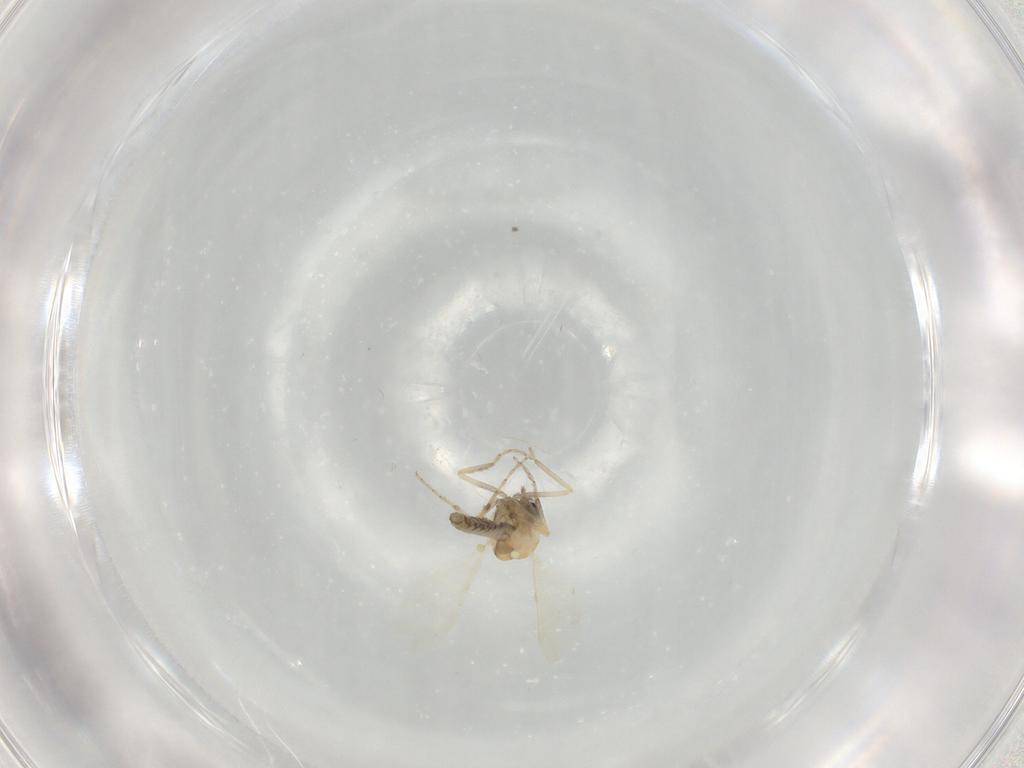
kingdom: Animalia
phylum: Arthropoda
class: Insecta
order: Diptera
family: Ceratopogonidae
